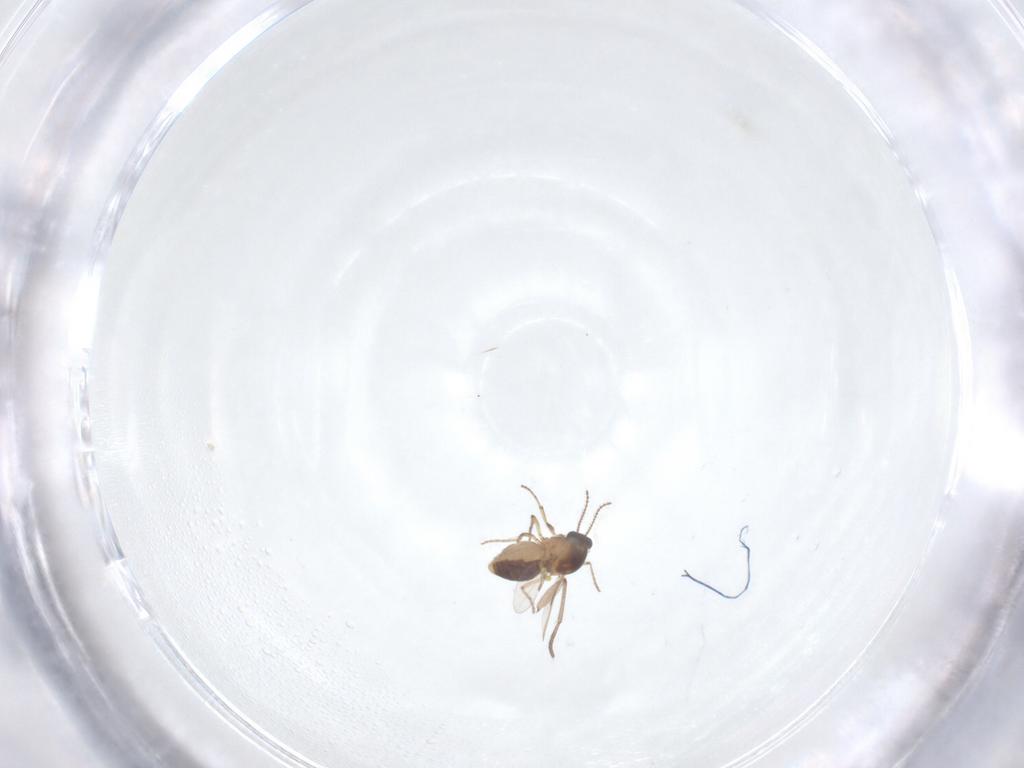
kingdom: Animalia
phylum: Arthropoda
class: Insecta
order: Diptera
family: Ceratopogonidae
